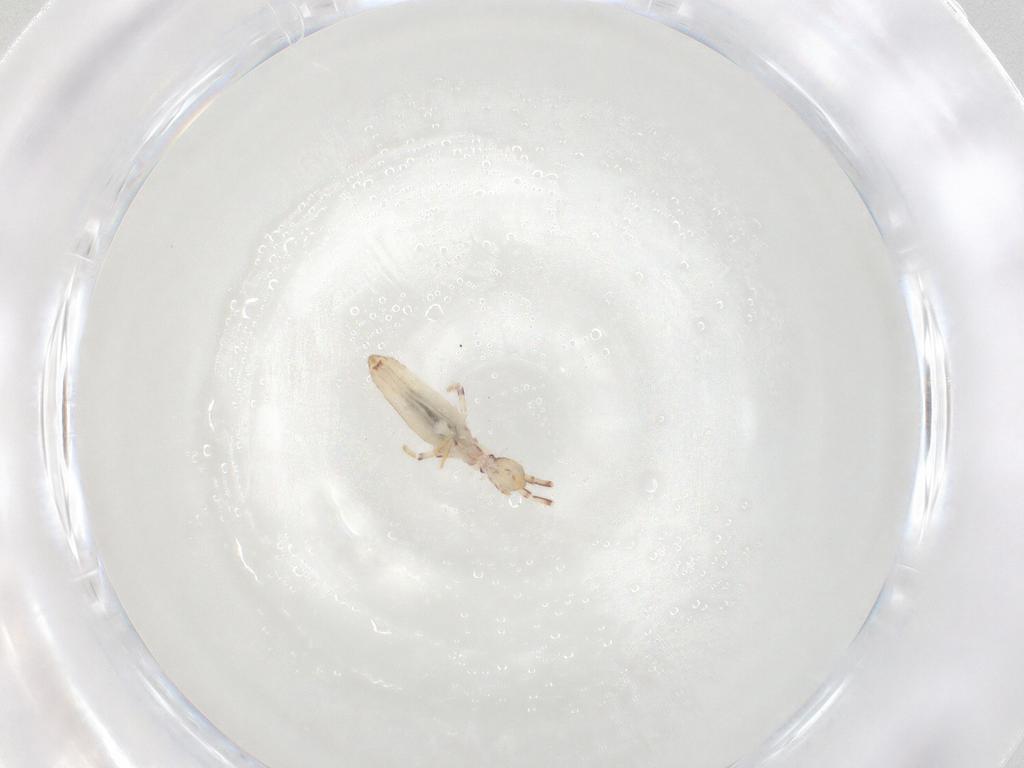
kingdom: Animalia
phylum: Arthropoda
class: Collembola
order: Entomobryomorpha
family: Entomobryidae
